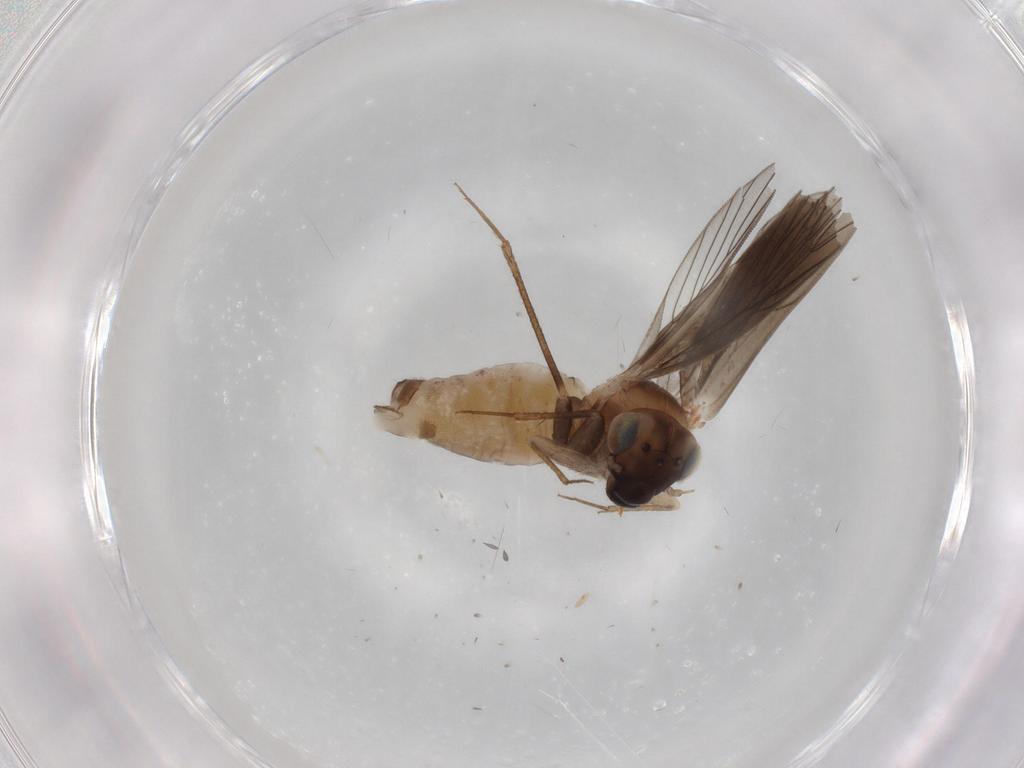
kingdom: Animalia
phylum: Arthropoda
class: Insecta
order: Psocodea
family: Lepidopsocidae
